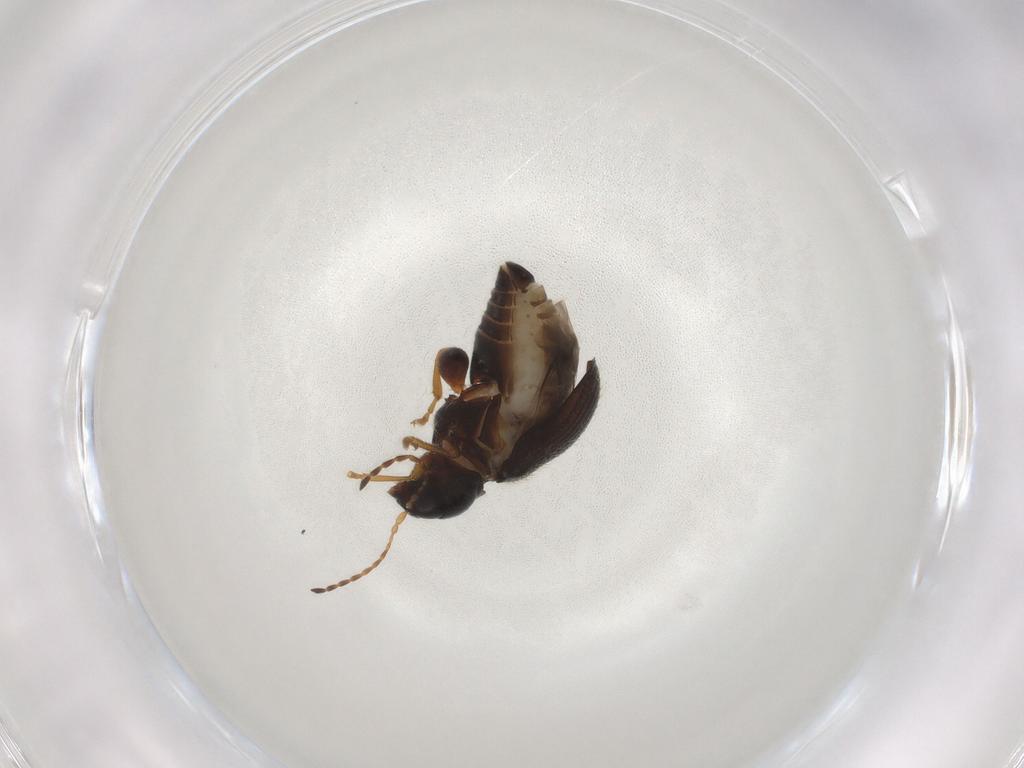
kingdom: Animalia
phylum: Arthropoda
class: Insecta
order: Coleoptera
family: Chrysomelidae
